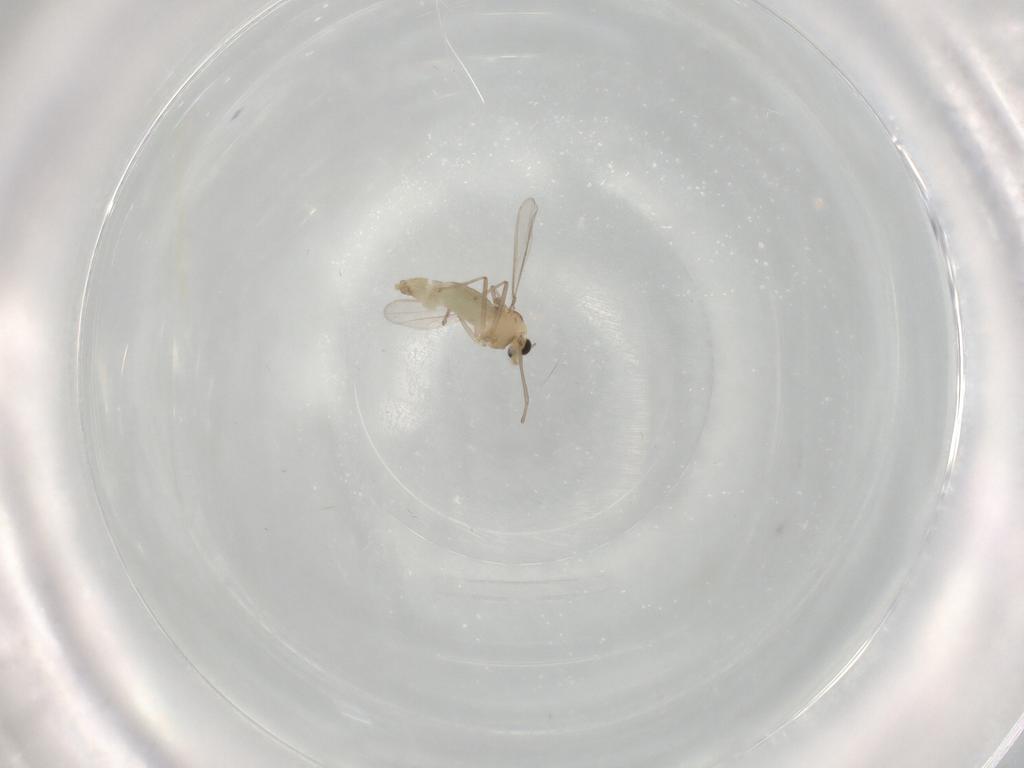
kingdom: Animalia
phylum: Arthropoda
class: Insecta
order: Diptera
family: Chironomidae
